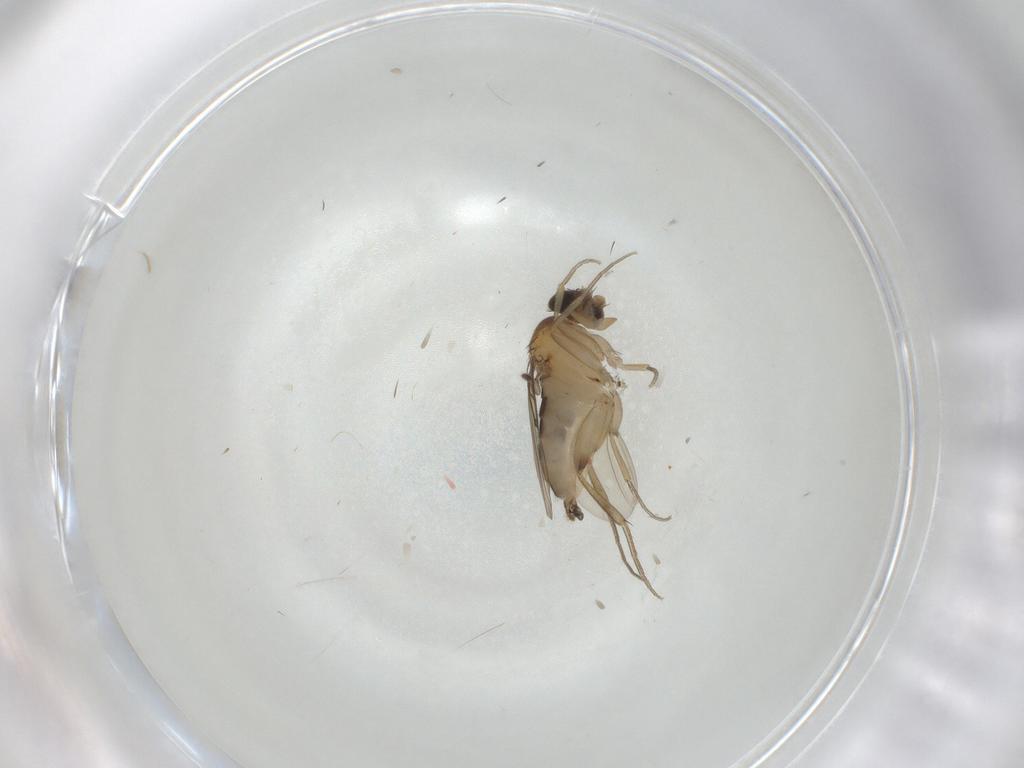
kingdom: Animalia
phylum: Arthropoda
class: Insecta
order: Diptera
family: Phoridae
